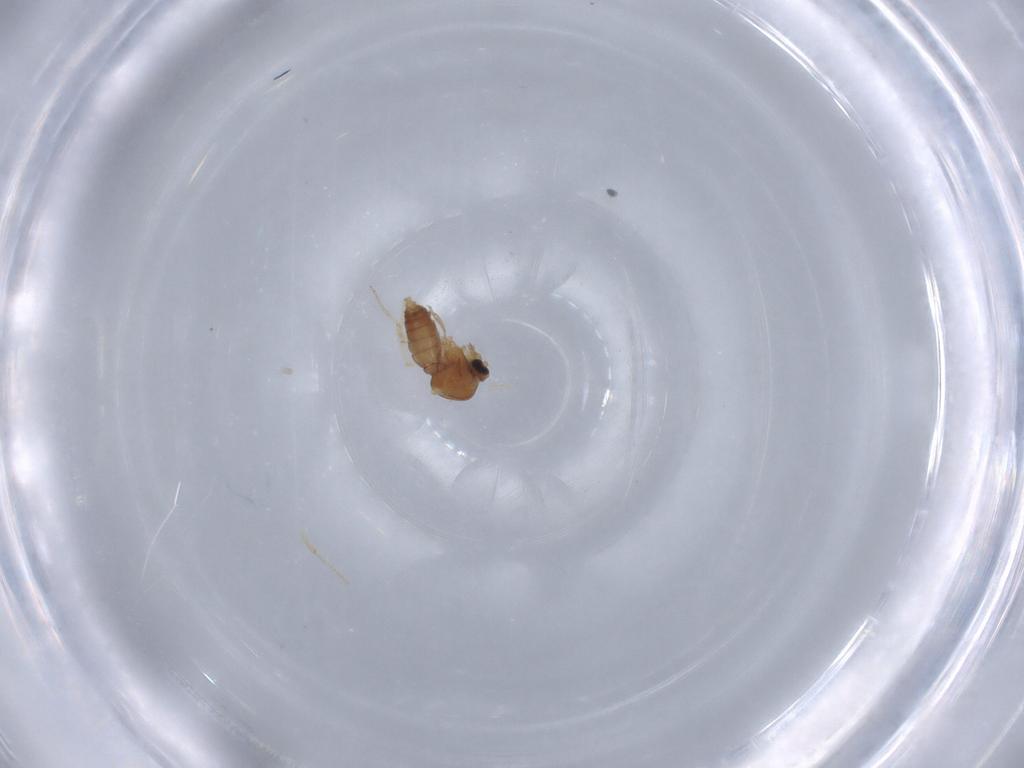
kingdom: Animalia
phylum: Arthropoda
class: Insecta
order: Diptera
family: Ceratopogonidae
